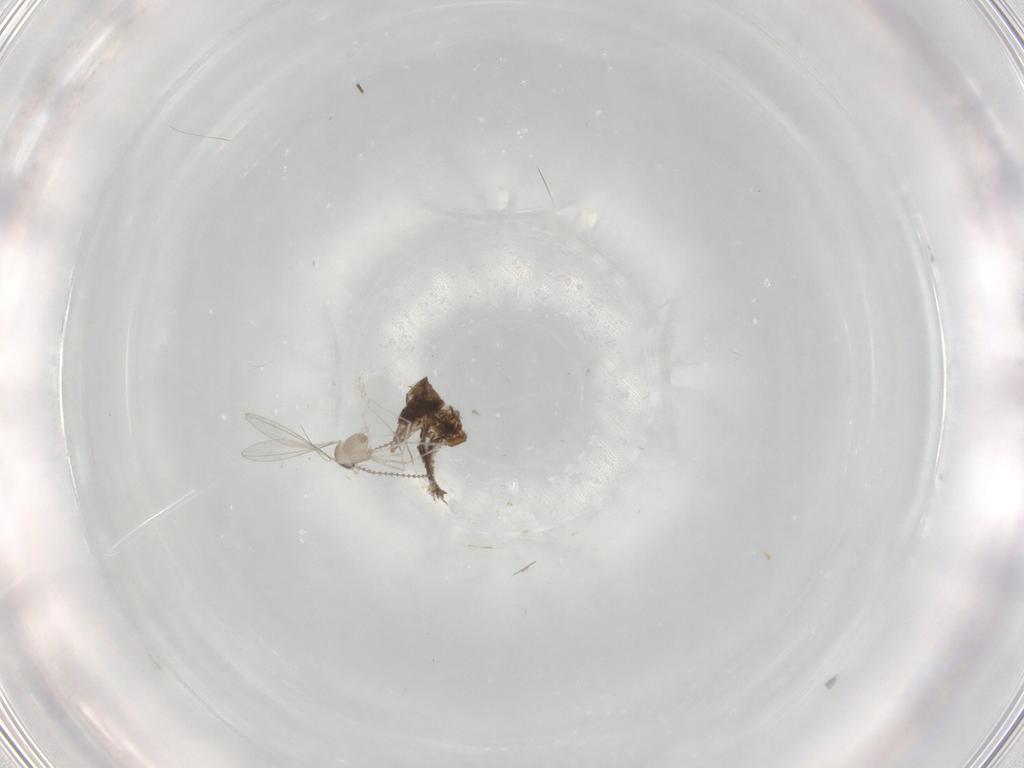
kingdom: Animalia
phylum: Arthropoda
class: Insecta
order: Diptera
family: Cecidomyiidae
